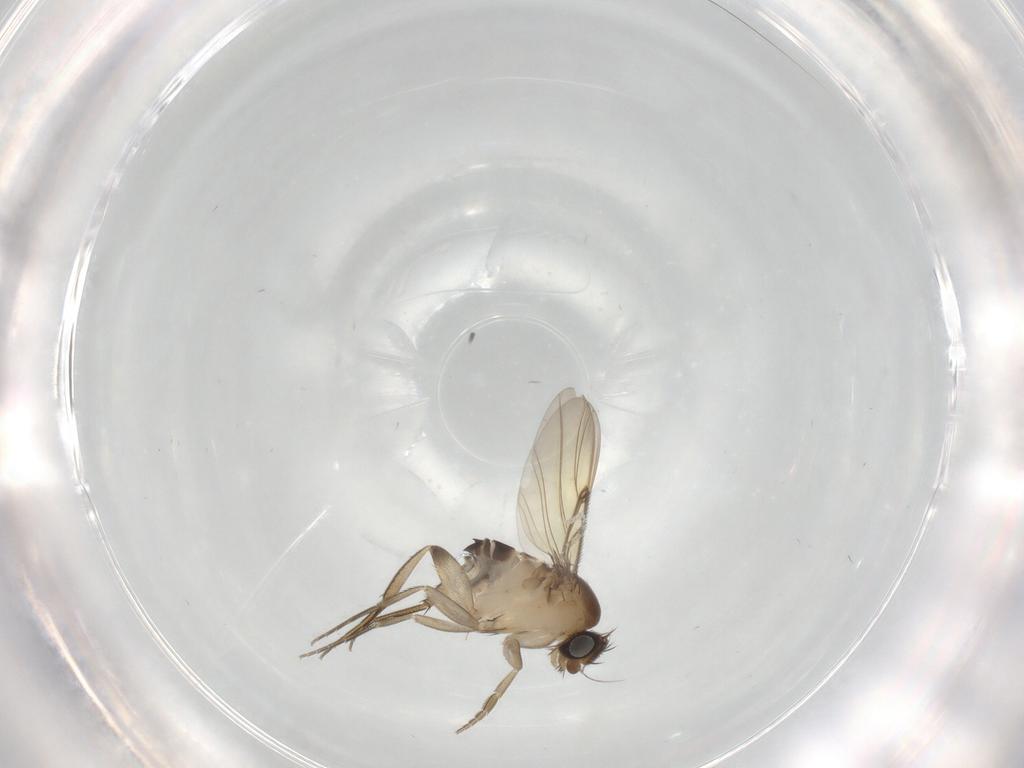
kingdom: Animalia
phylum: Arthropoda
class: Insecta
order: Diptera
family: Phoridae
